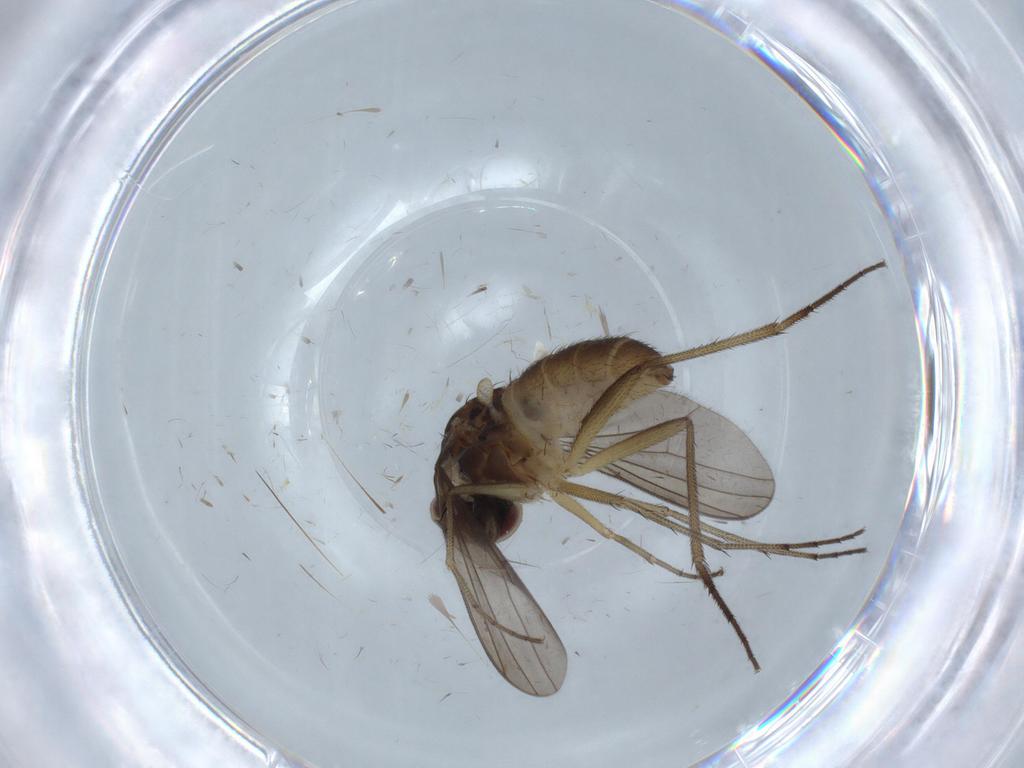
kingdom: Animalia
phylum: Arthropoda
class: Insecta
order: Diptera
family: Dolichopodidae
